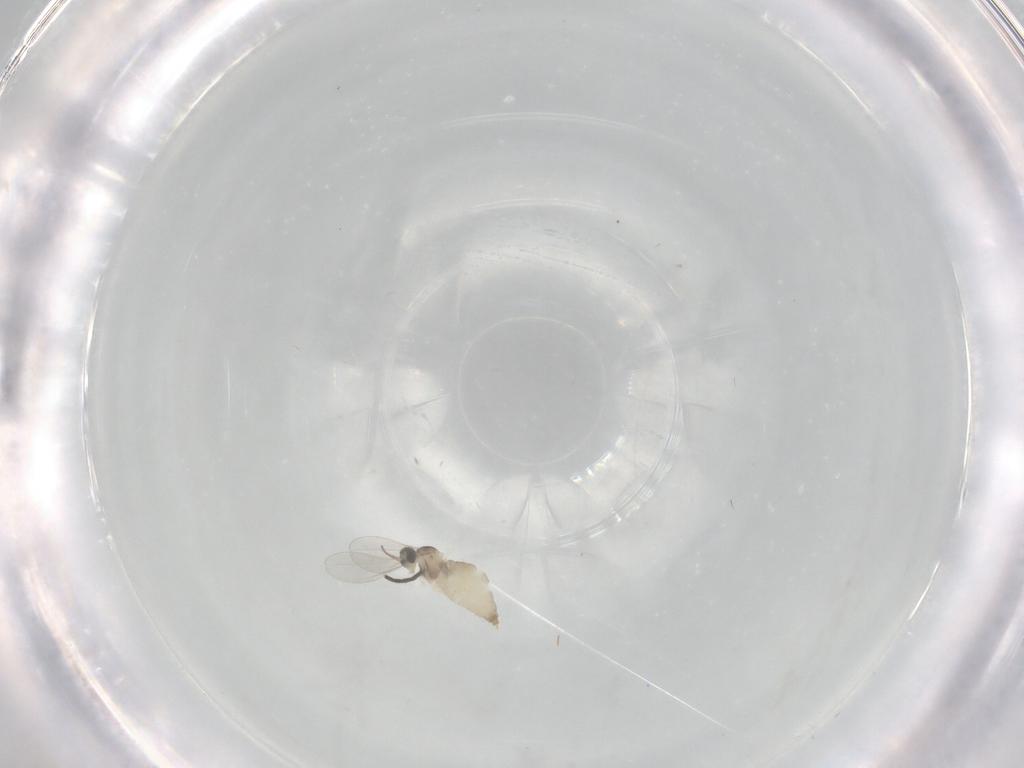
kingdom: Animalia
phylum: Arthropoda
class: Insecta
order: Diptera
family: Sciaridae
